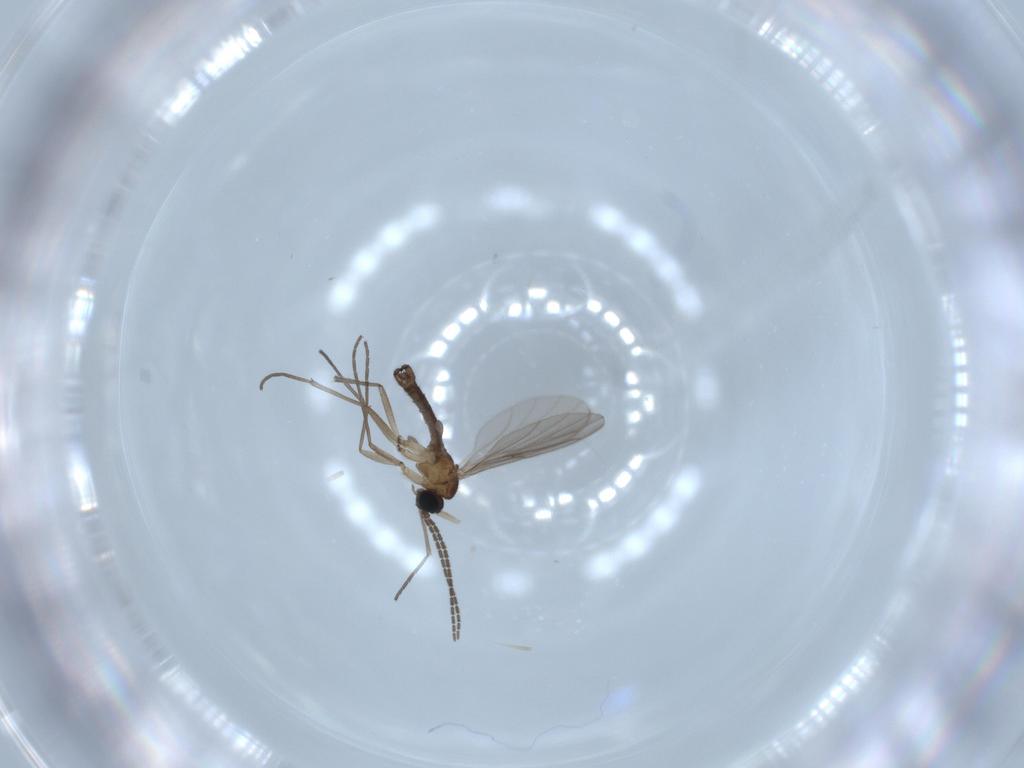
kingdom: Animalia
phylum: Arthropoda
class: Insecta
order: Diptera
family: Sciaridae
